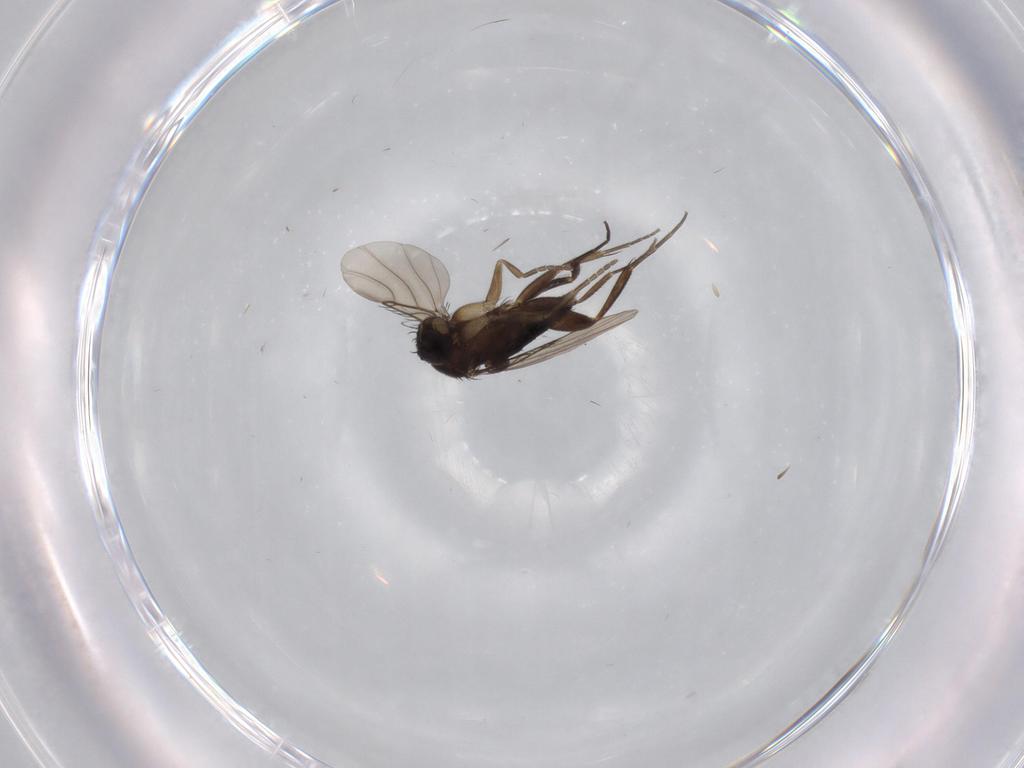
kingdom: Animalia
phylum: Arthropoda
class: Insecta
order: Diptera
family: Phoridae
